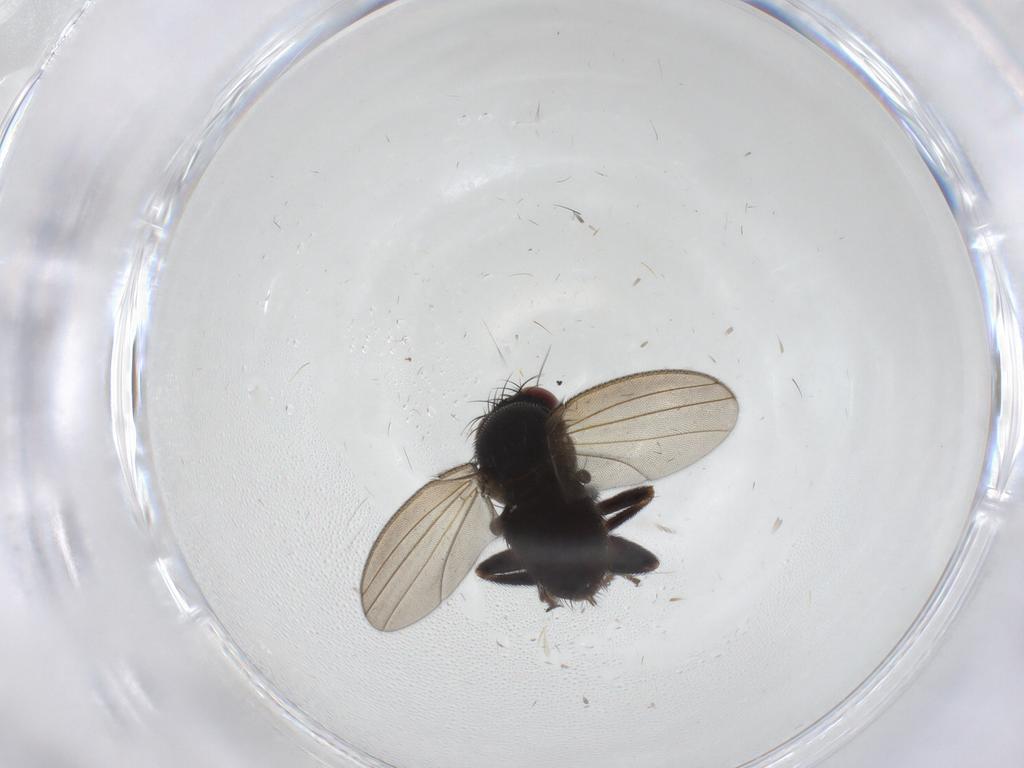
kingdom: Animalia
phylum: Arthropoda
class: Insecta
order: Diptera
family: Milichiidae
